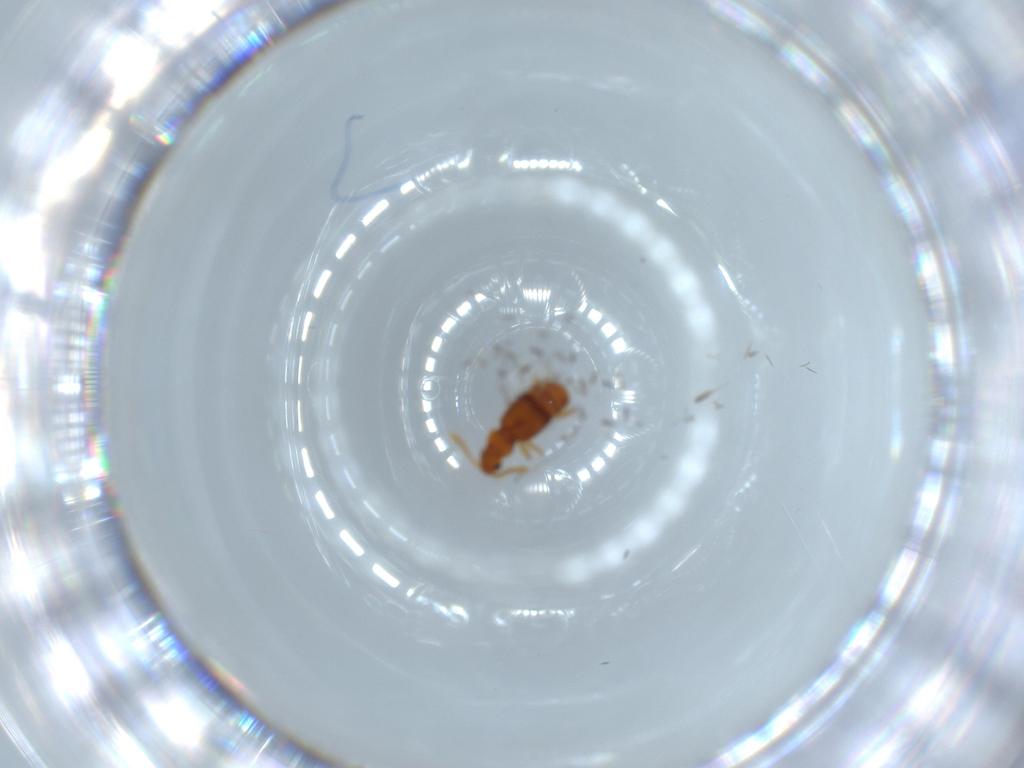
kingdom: Animalia
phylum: Arthropoda
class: Insecta
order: Coleoptera
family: Staphylinidae
